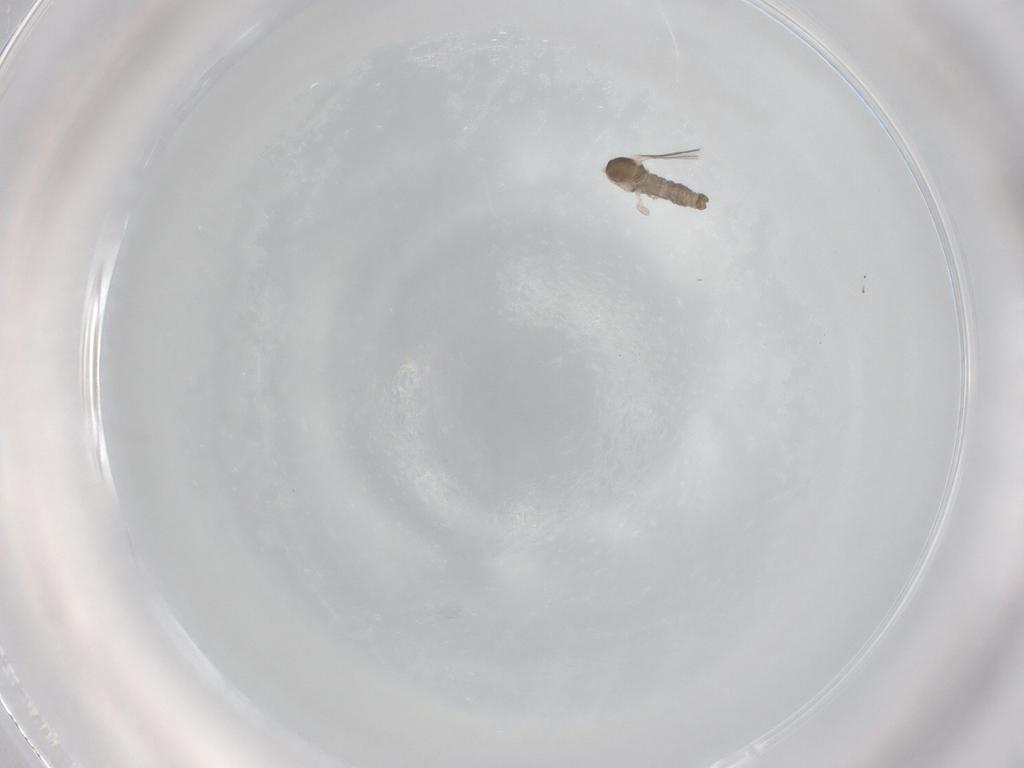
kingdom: Animalia
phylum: Arthropoda
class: Insecta
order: Diptera
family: Cecidomyiidae
